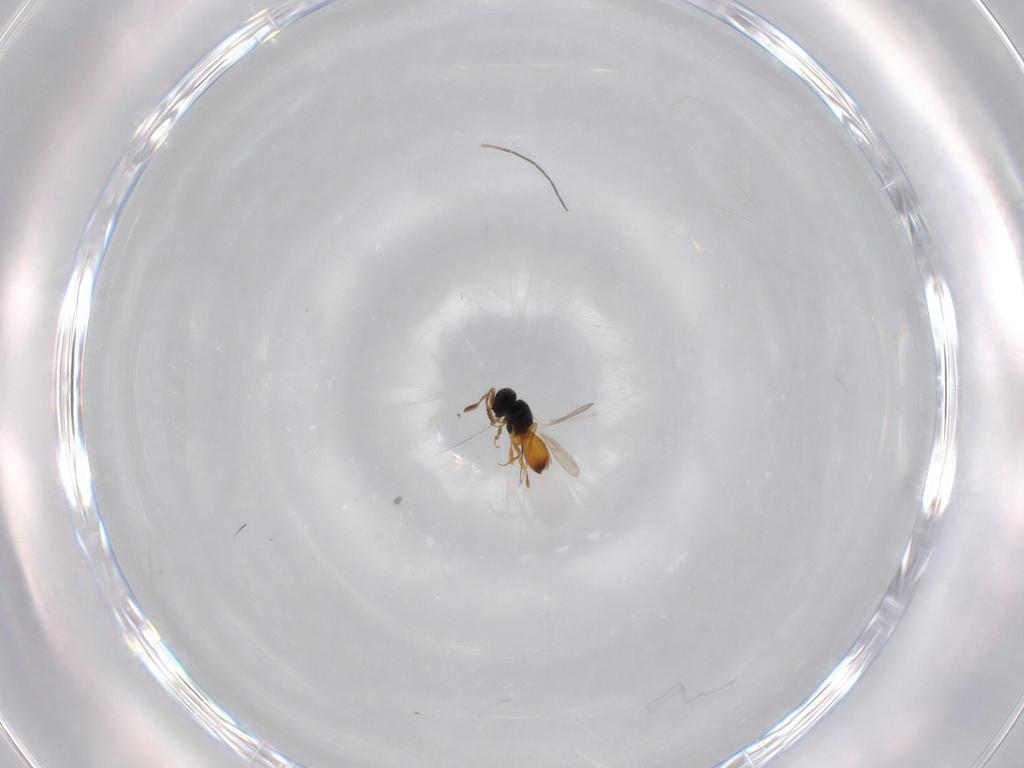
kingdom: Animalia
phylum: Arthropoda
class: Insecta
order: Hymenoptera
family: Scelionidae
